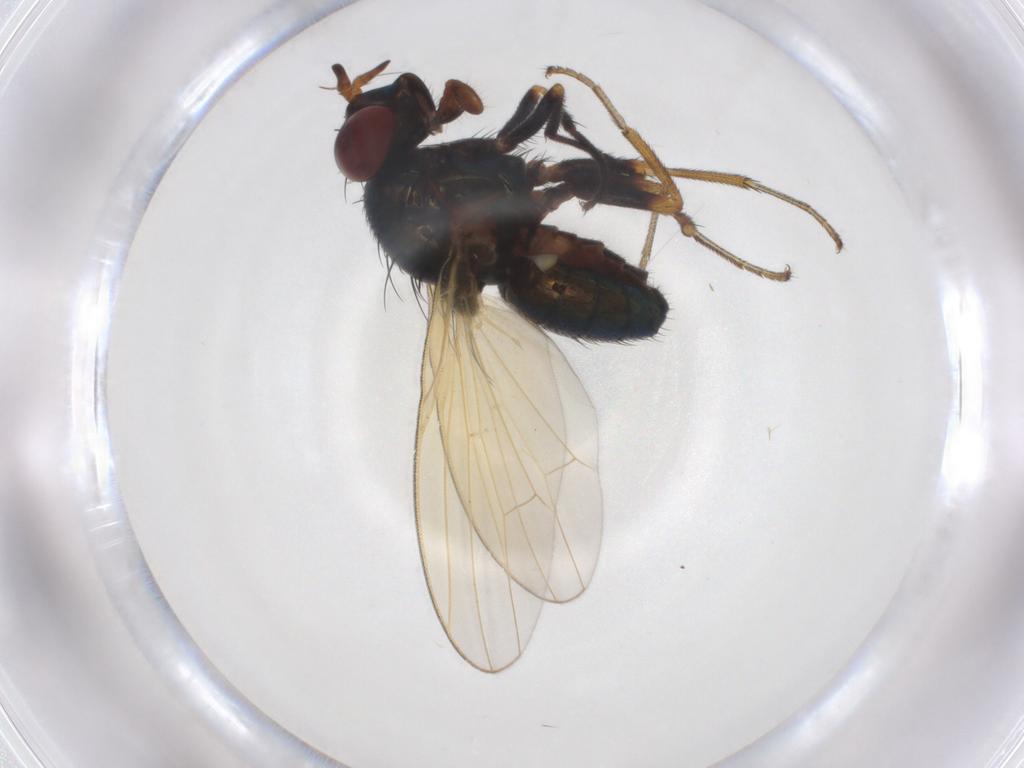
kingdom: Animalia
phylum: Arthropoda
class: Insecta
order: Diptera
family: Lauxaniidae
